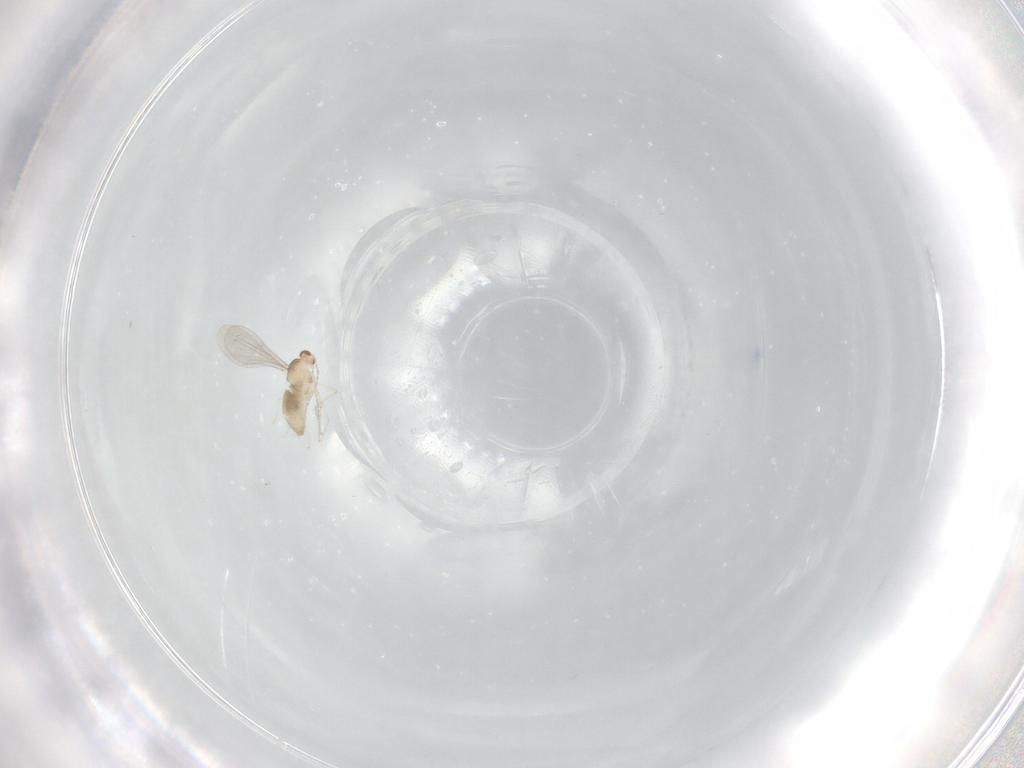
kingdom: Animalia
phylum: Arthropoda
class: Insecta
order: Diptera
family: Cecidomyiidae
